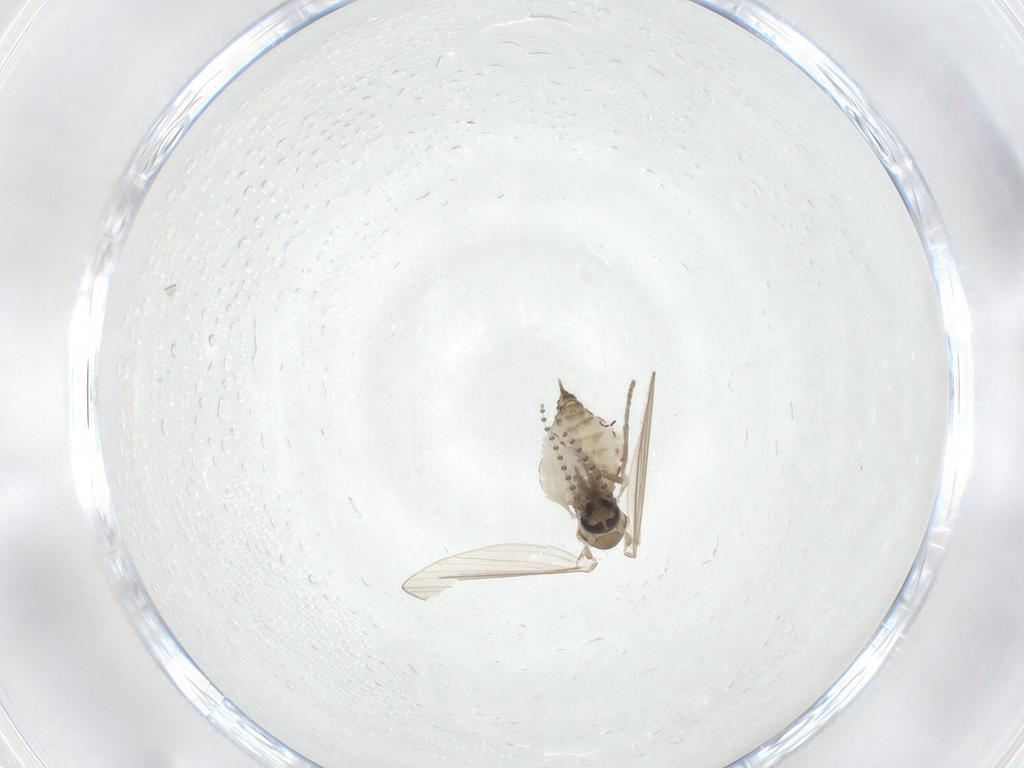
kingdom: Animalia
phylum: Arthropoda
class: Insecta
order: Diptera
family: Psychodidae
